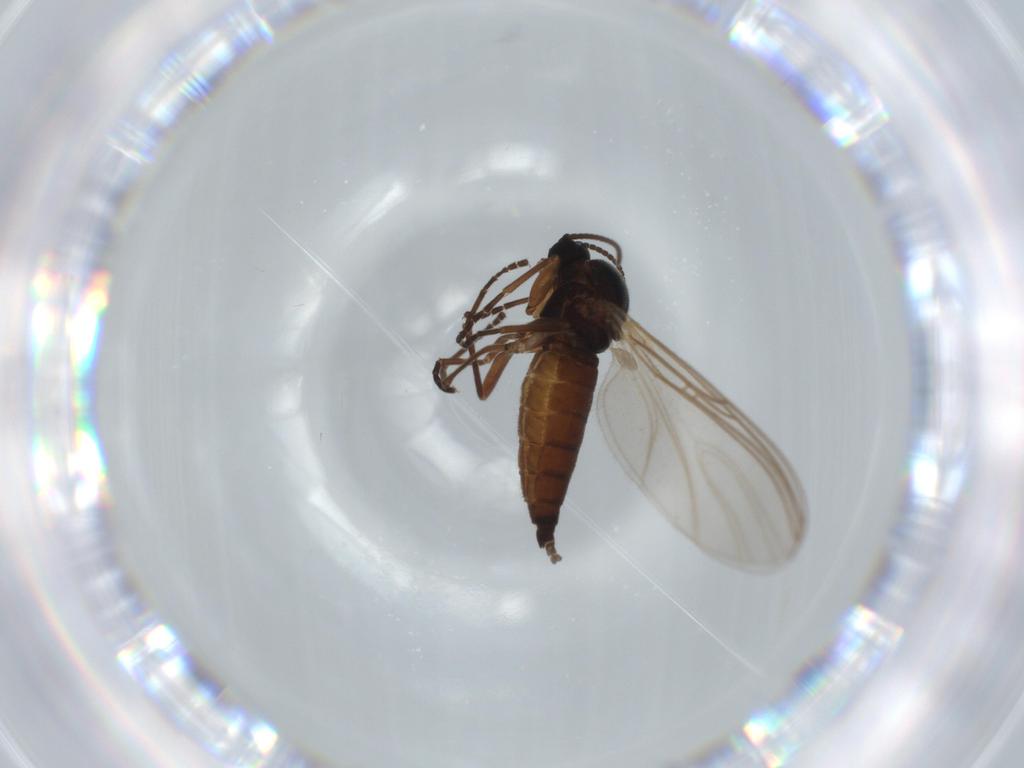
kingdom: Animalia
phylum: Arthropoda
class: Insecta
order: Diptera
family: Sciaridae
